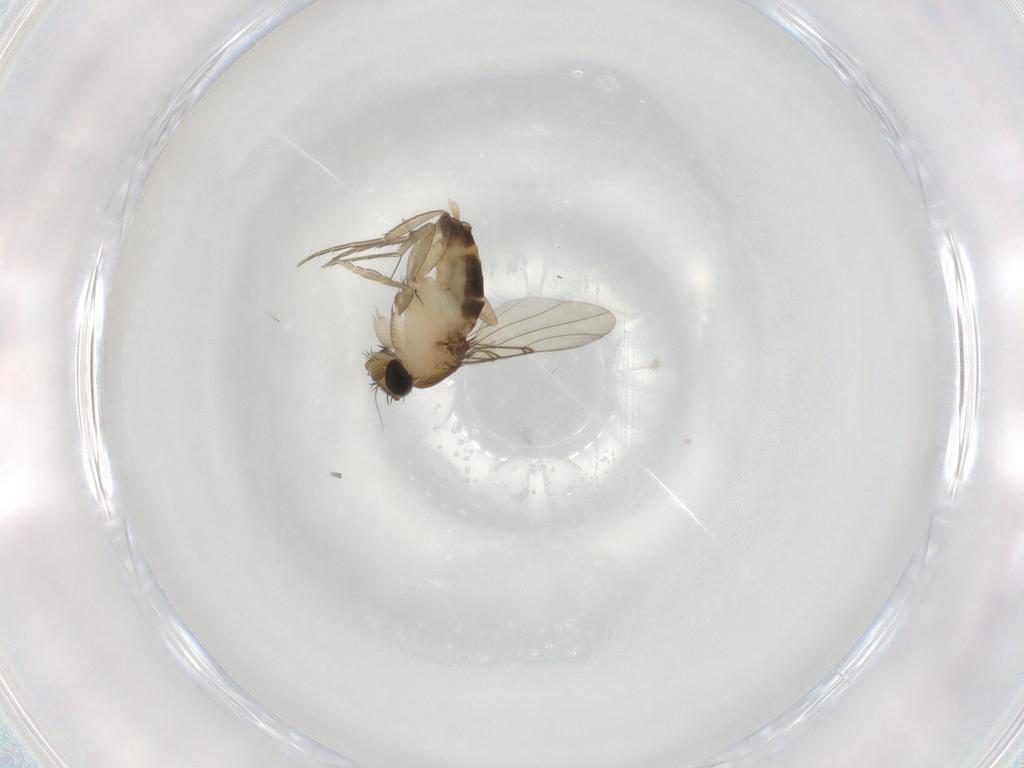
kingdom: Animalia
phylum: Arthropoda
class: Insecta
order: Diptera
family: Phoridae
